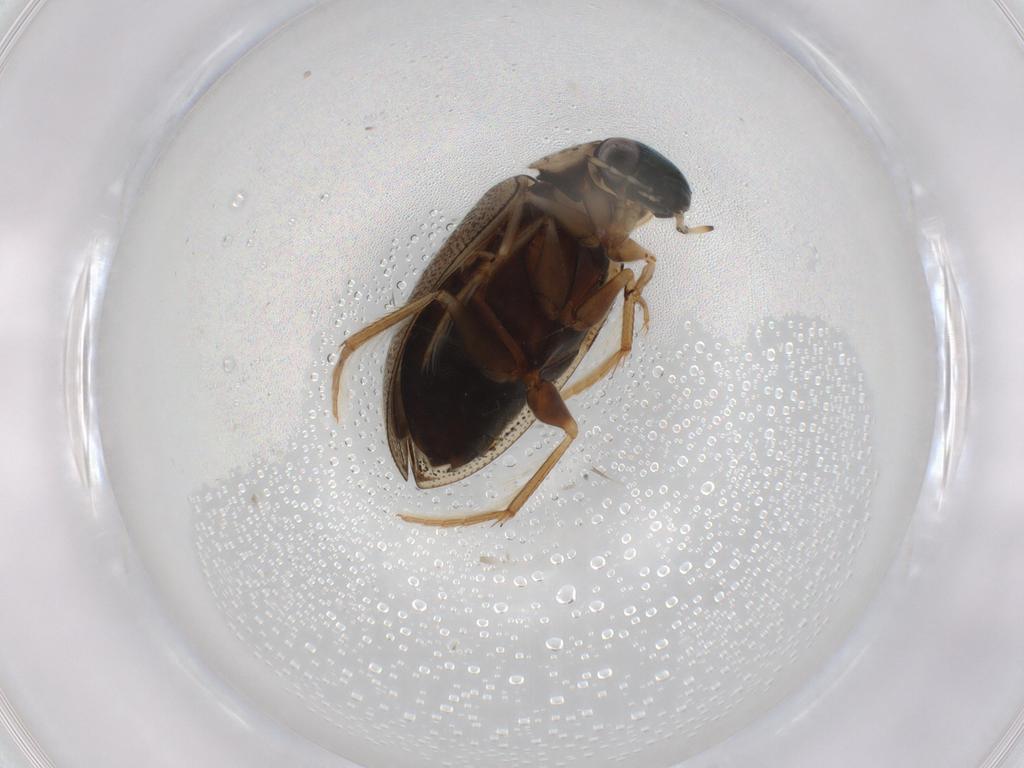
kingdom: Animalia
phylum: Arthropoda
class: Insecta
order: Coleoptera
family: Hydrophilidae
